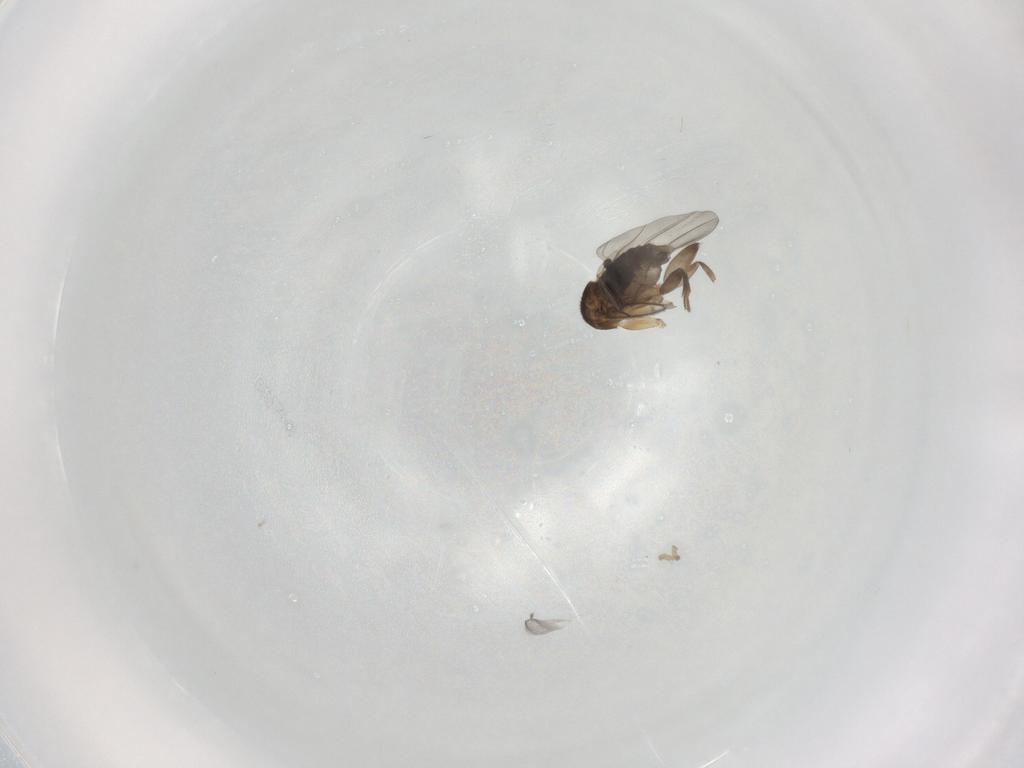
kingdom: Animalia
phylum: Arthropoda
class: Insecta
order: Diptera
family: Phoridae
